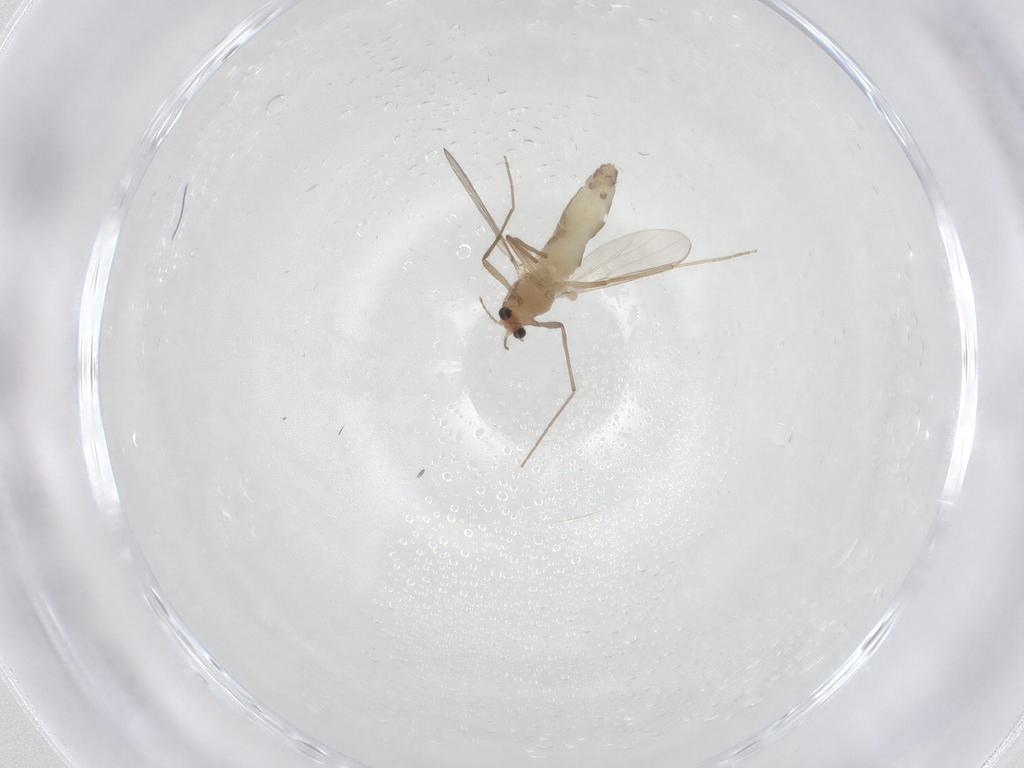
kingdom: Animalia
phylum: Arthropoda
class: Insecta
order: Diptera
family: Chironomidae
